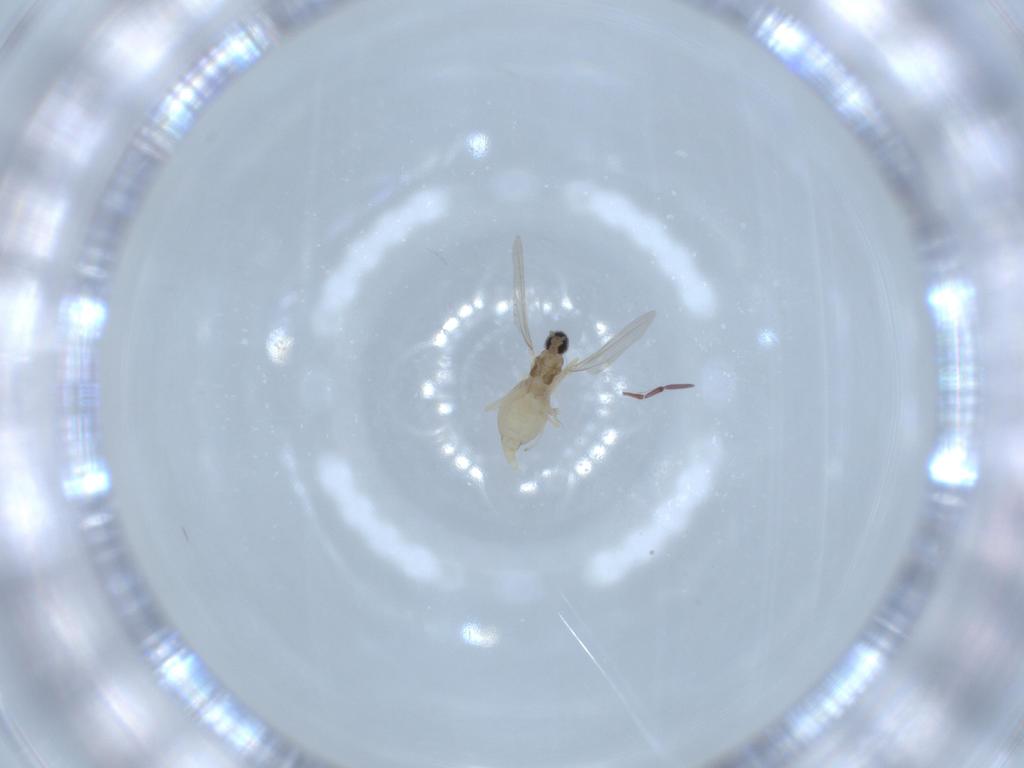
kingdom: Animalia
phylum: Arthropoda
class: Insecta
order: Diptera
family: Cecidomyiidae
